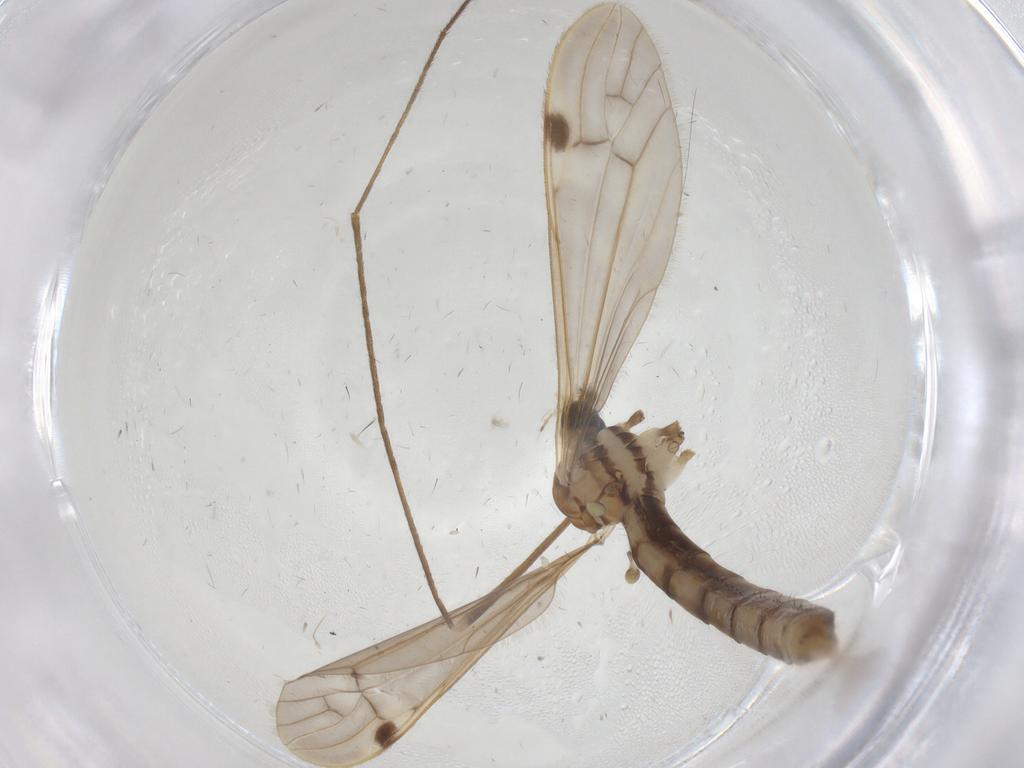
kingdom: Animalia
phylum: Arthropoda
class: Insecta
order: Diptera
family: Limoniidae
